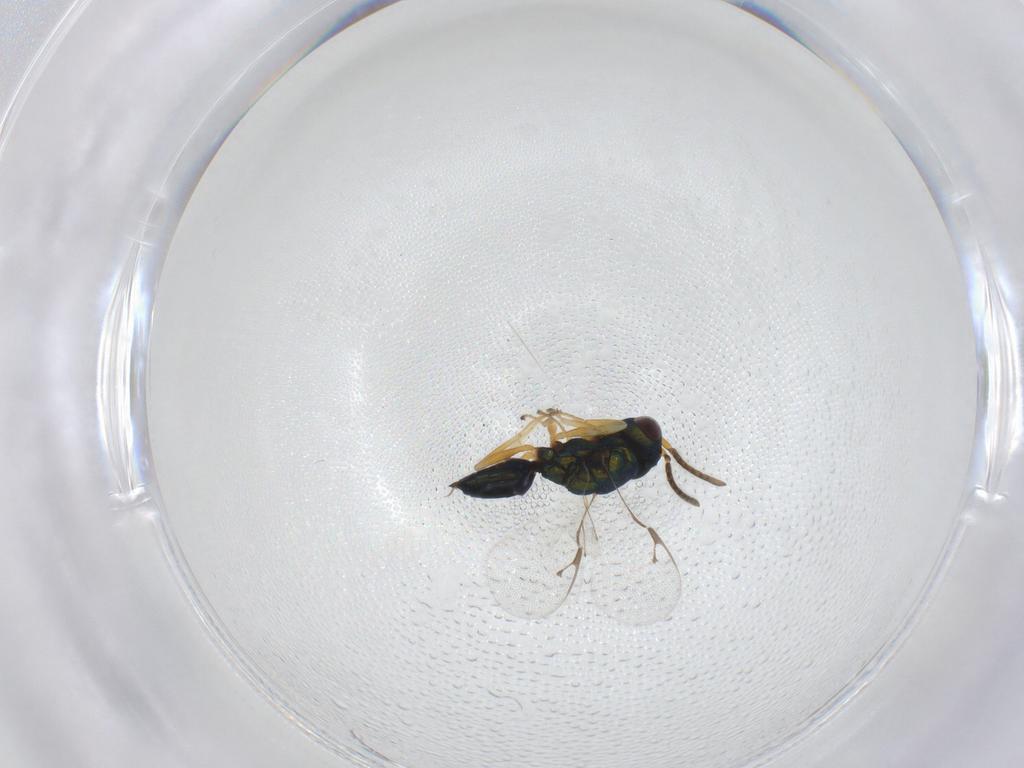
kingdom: Animalia
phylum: Arthropoda
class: Insecta
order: Hymenoptera
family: Pteromalidae
